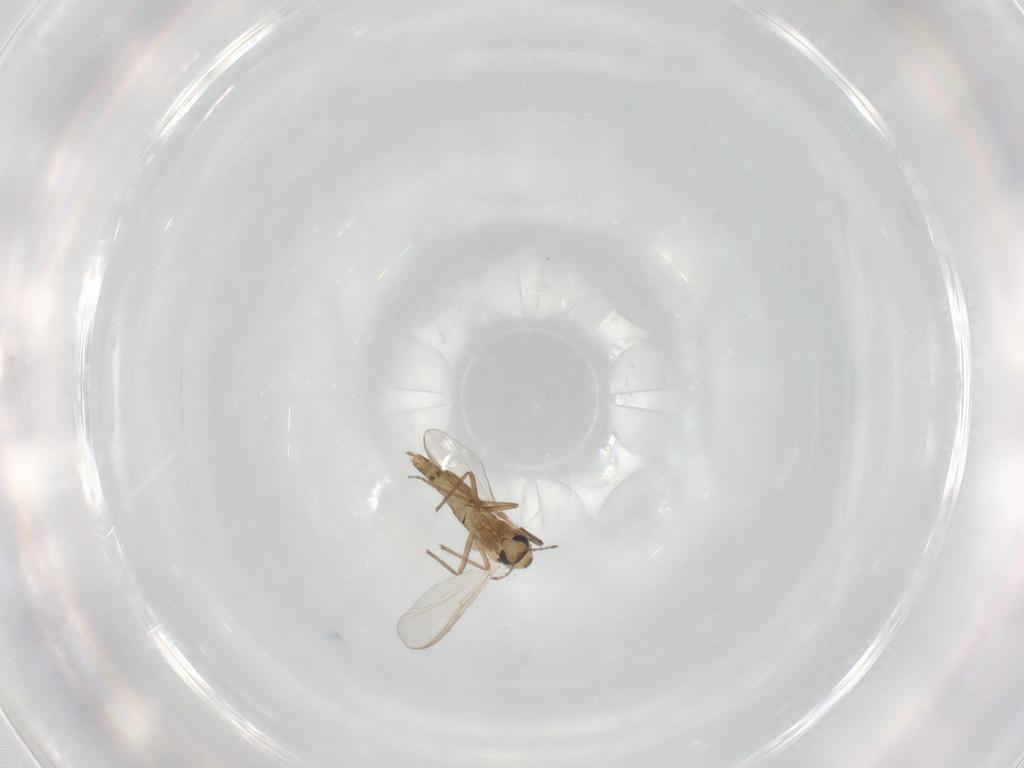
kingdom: Animalia
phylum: Arthropoda
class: Insecta
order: Diptera
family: Chironomidae
